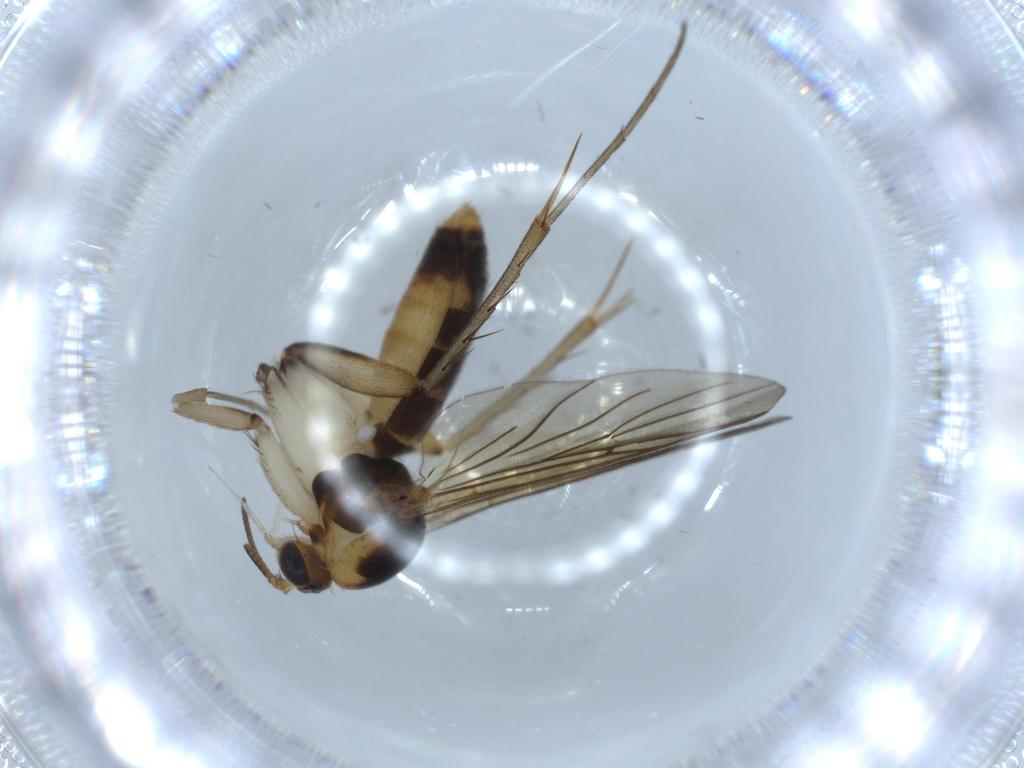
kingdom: Animalia
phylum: Arthropoda
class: Insecta
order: Diptera
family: Mycetophilidae
